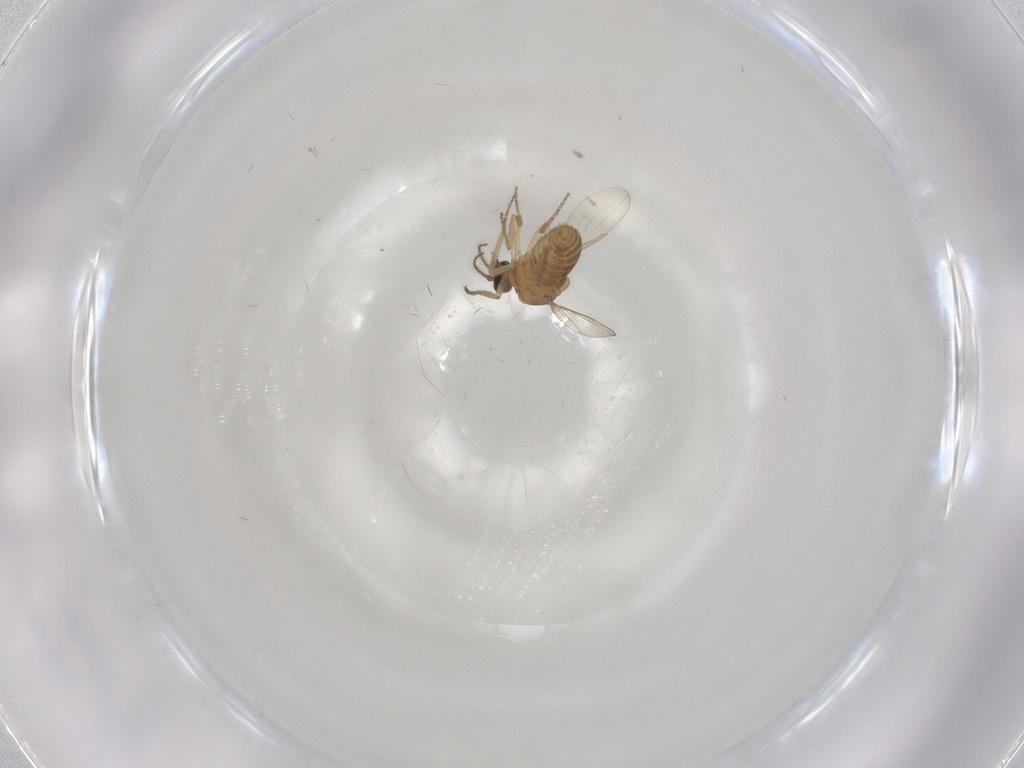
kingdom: Animalia
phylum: Arthropoda
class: Insecta
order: Diptera
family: Ceratopogonidae
